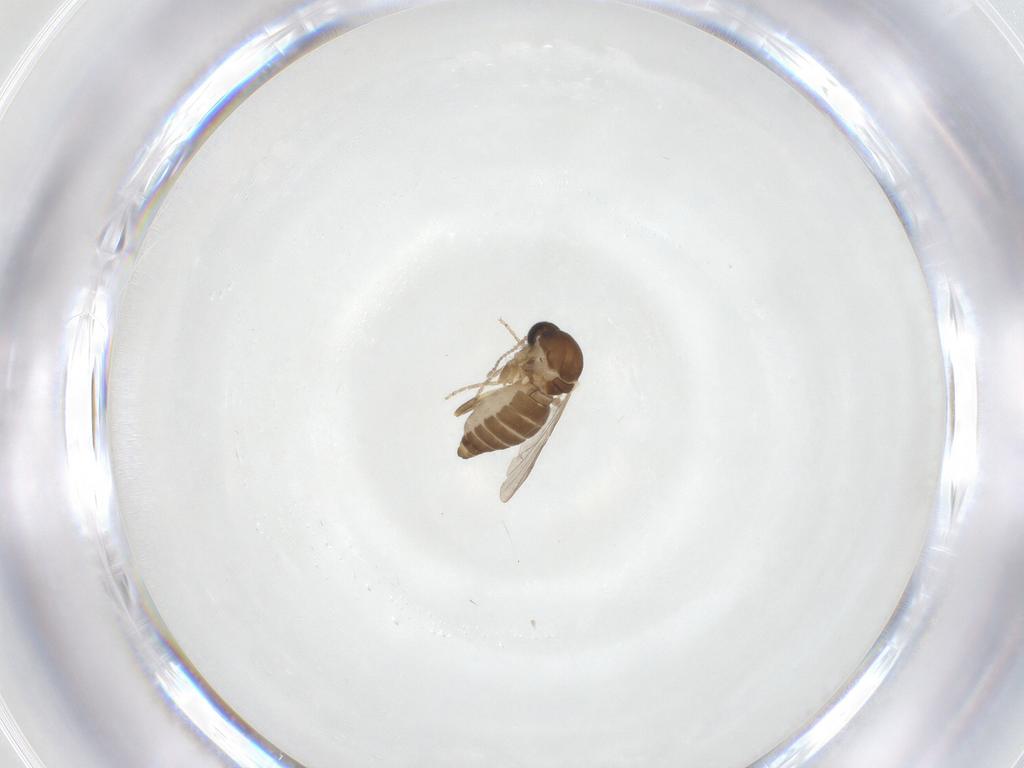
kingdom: Animalia
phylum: Arthropoda
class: Insecta
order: Diptera
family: Ceratopogonidae
